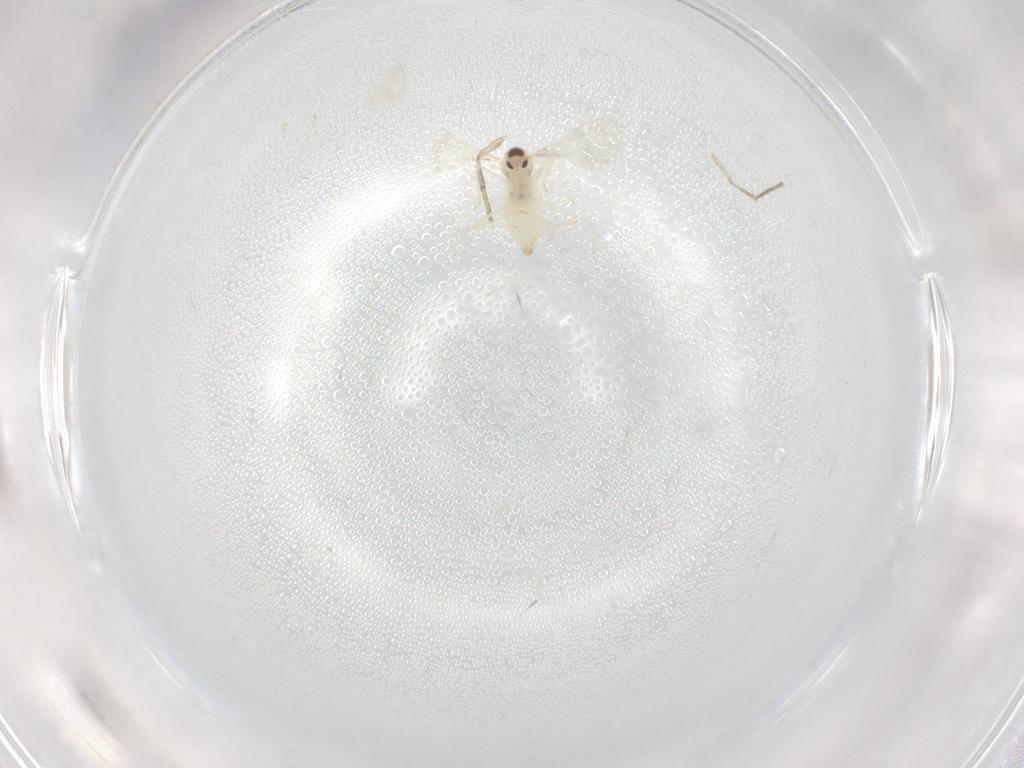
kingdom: Animalia
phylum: Arthropoda
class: Insecta
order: Diptera
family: Psychodidae
